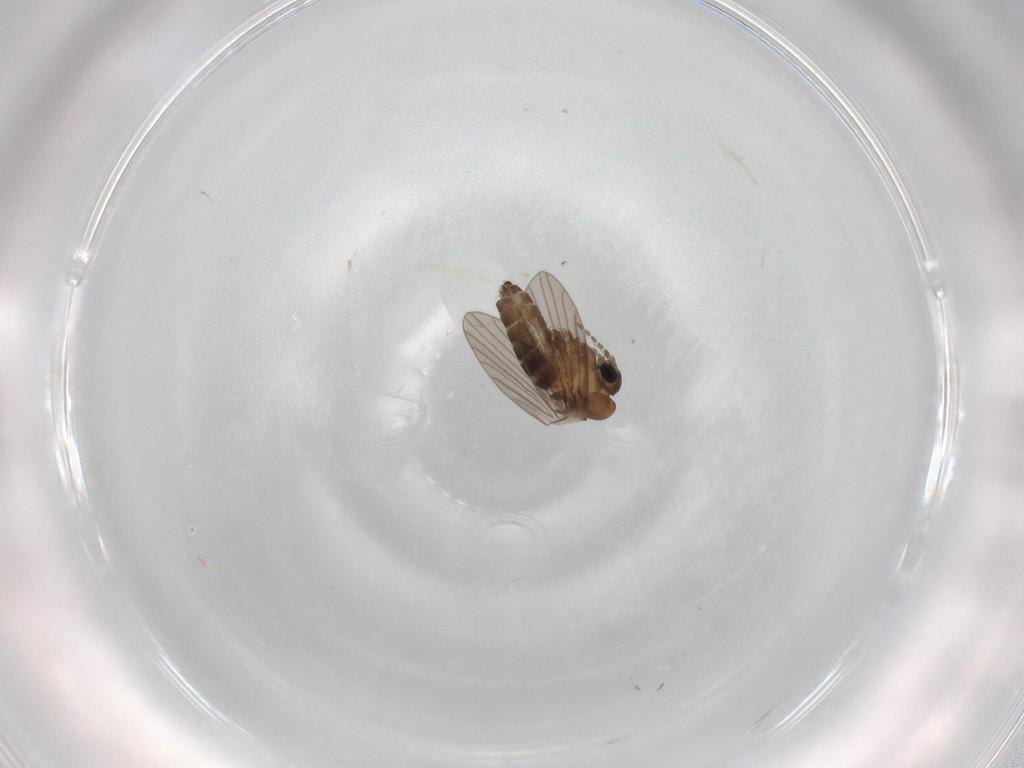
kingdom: Animalia
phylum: Arthropoda
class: Insecta
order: Diptera
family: Psychodidae
